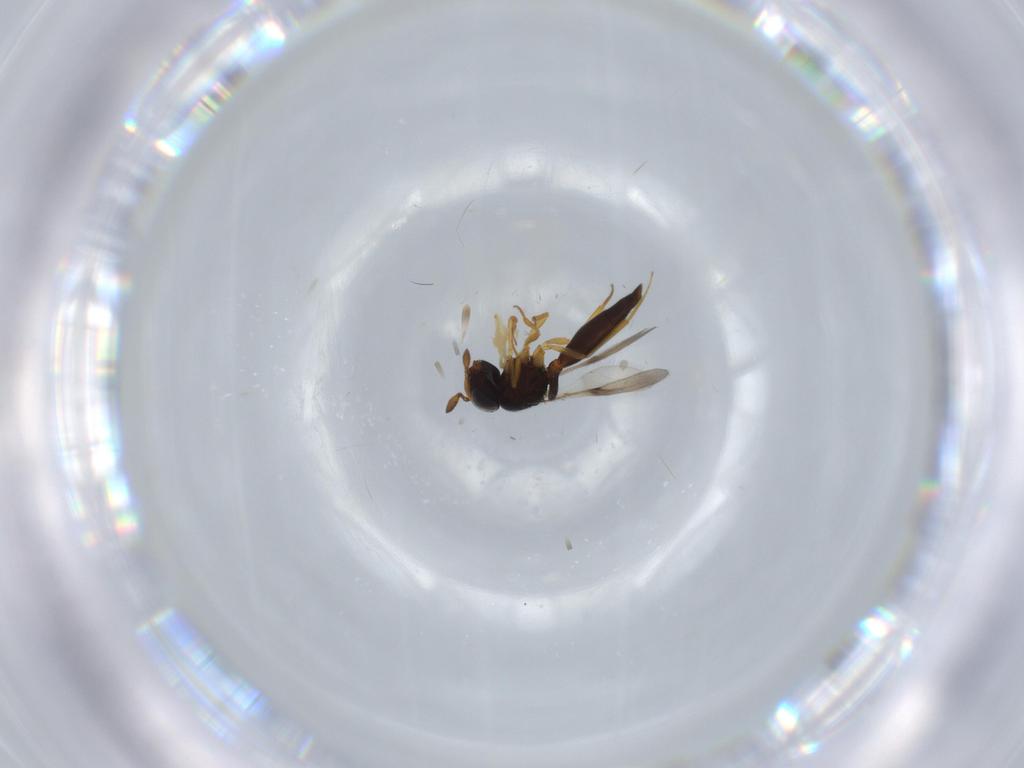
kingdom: Animalia
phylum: Arthropoda
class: Insecta
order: Hymenoptera
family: Scelionidae
